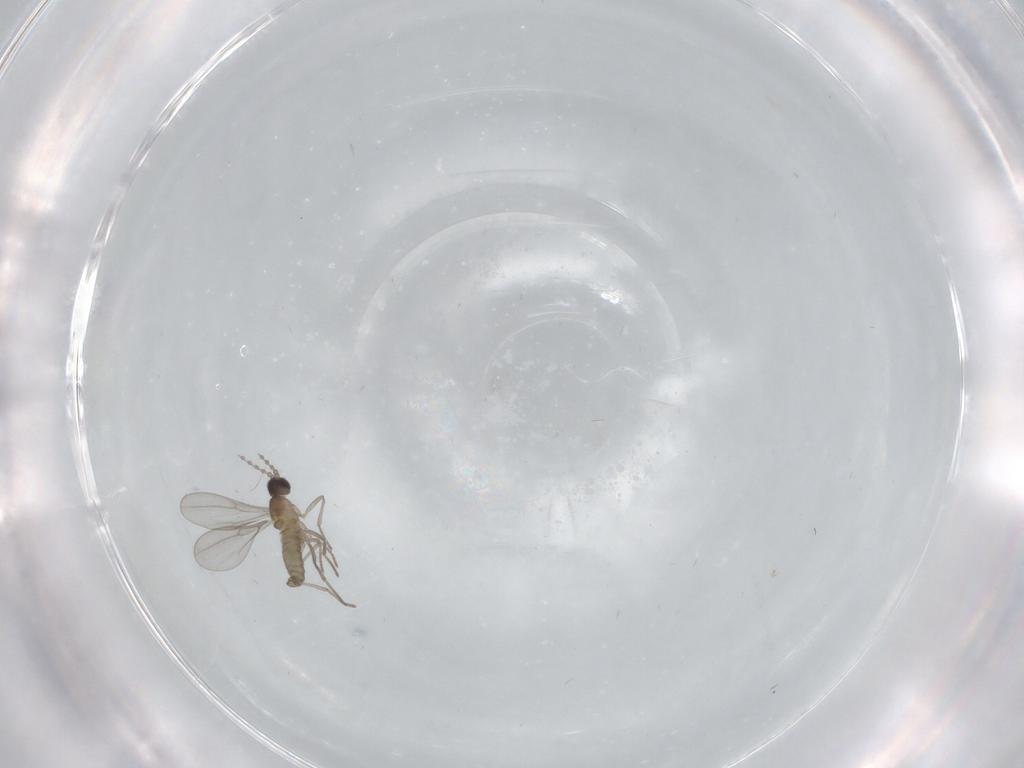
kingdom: Animalia
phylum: Arthropoda
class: Insecta
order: Diptera
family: Cecidomyiidae
